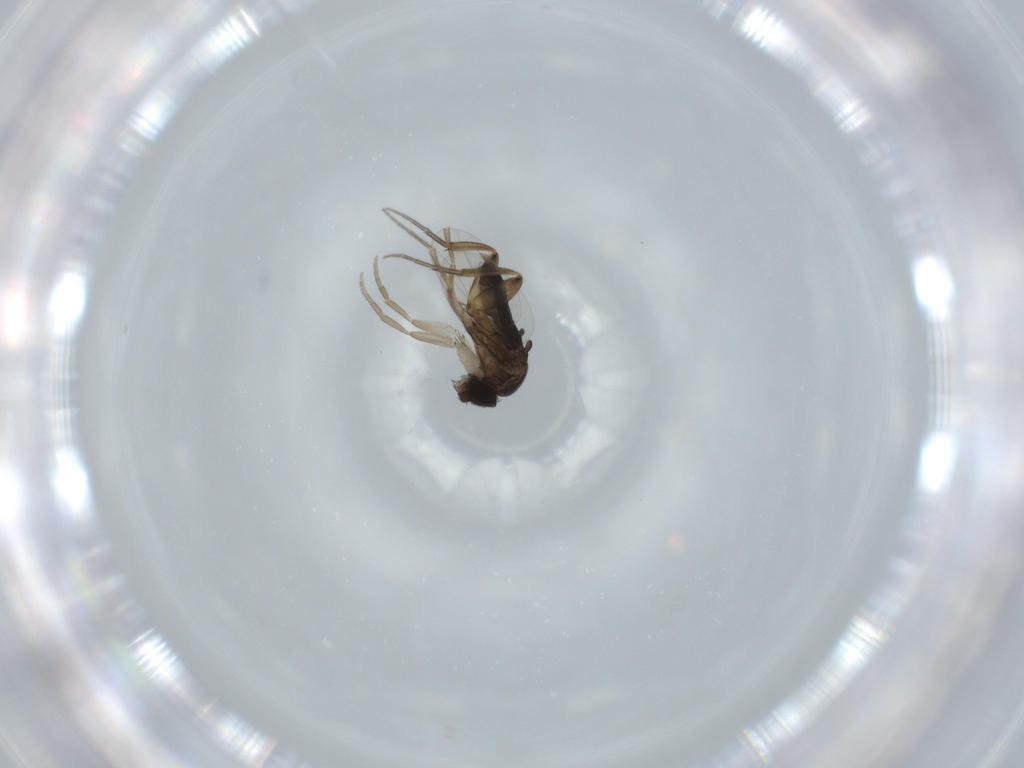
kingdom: Animalia
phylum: Arthropoda
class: Insecta
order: Diptera
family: Phoridae
